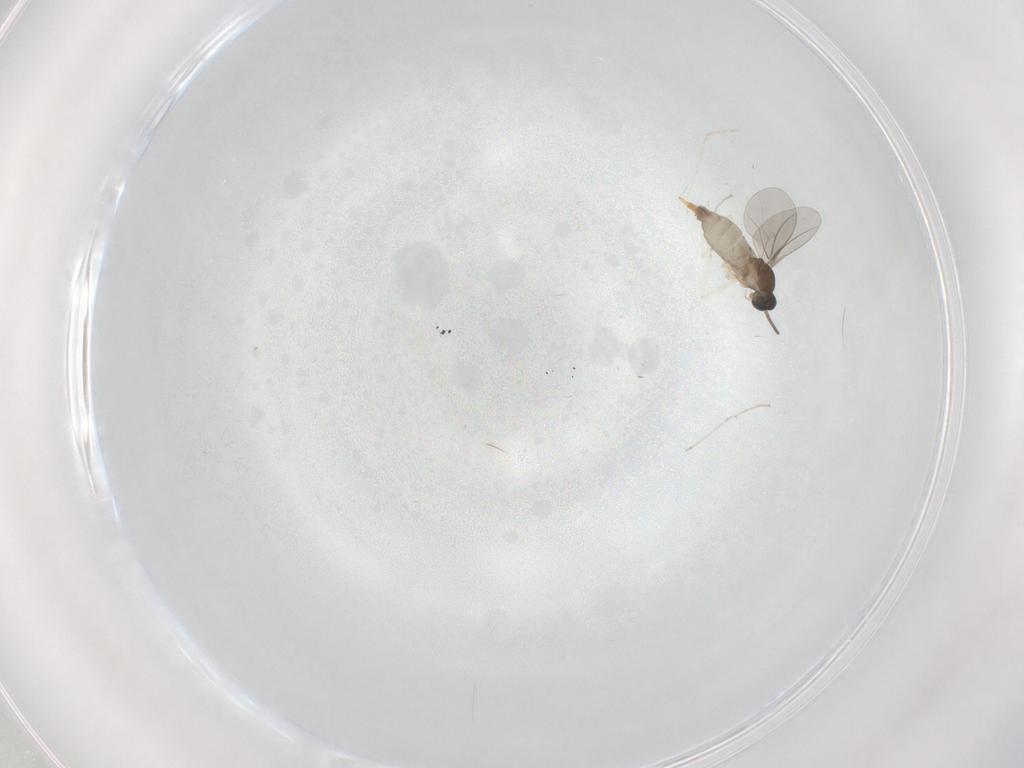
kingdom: Animalia
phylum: Arthropoda
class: Insecta
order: Diptera
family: Cecidomyiidae
